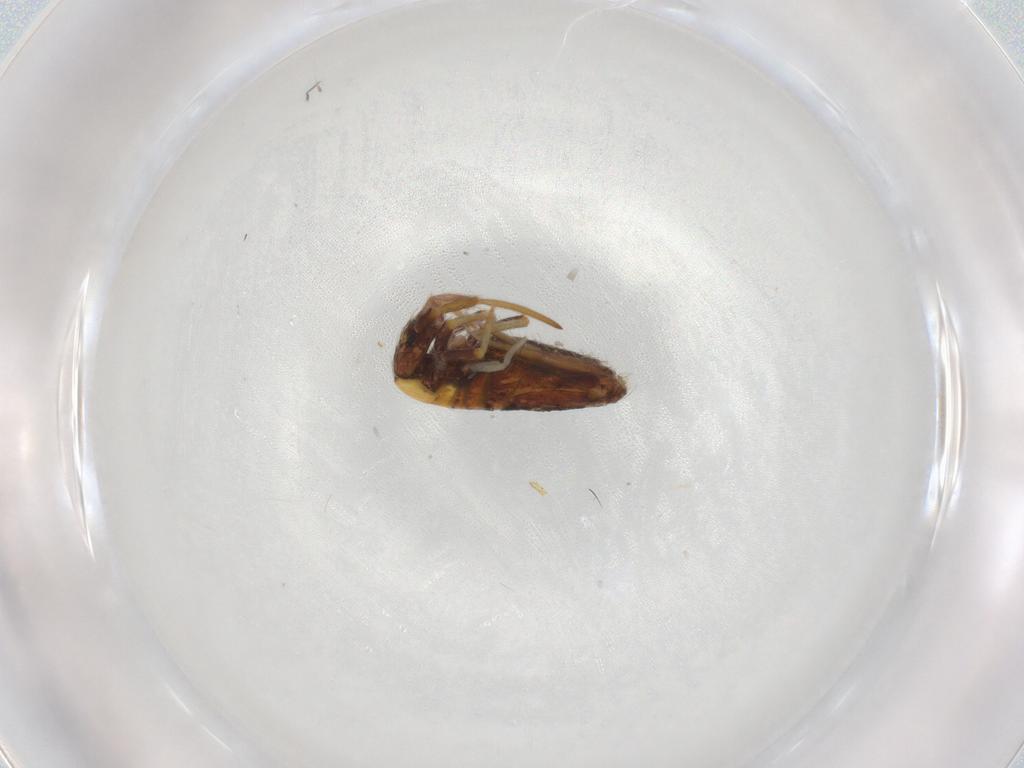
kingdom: Animalia
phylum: Arthropoda
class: Collembola
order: Entomobryomorpha
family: Entomobryidae
